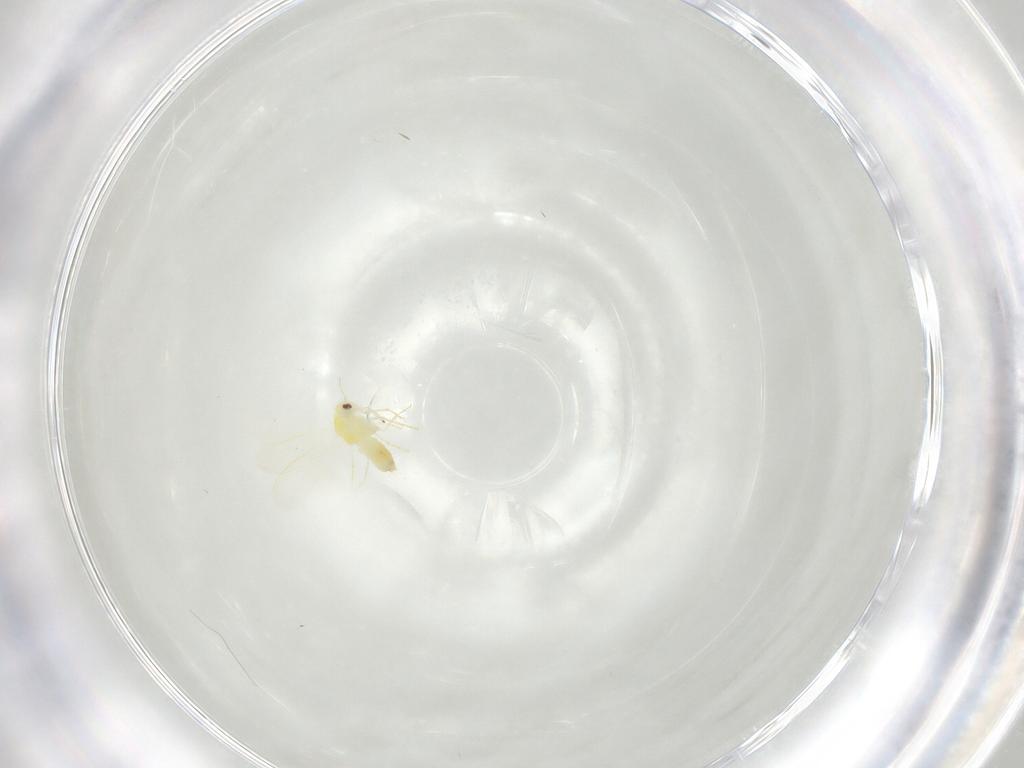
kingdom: Animalia
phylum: Arthropoda
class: Insecta
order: Hemiptera
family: Aleyrodidae
